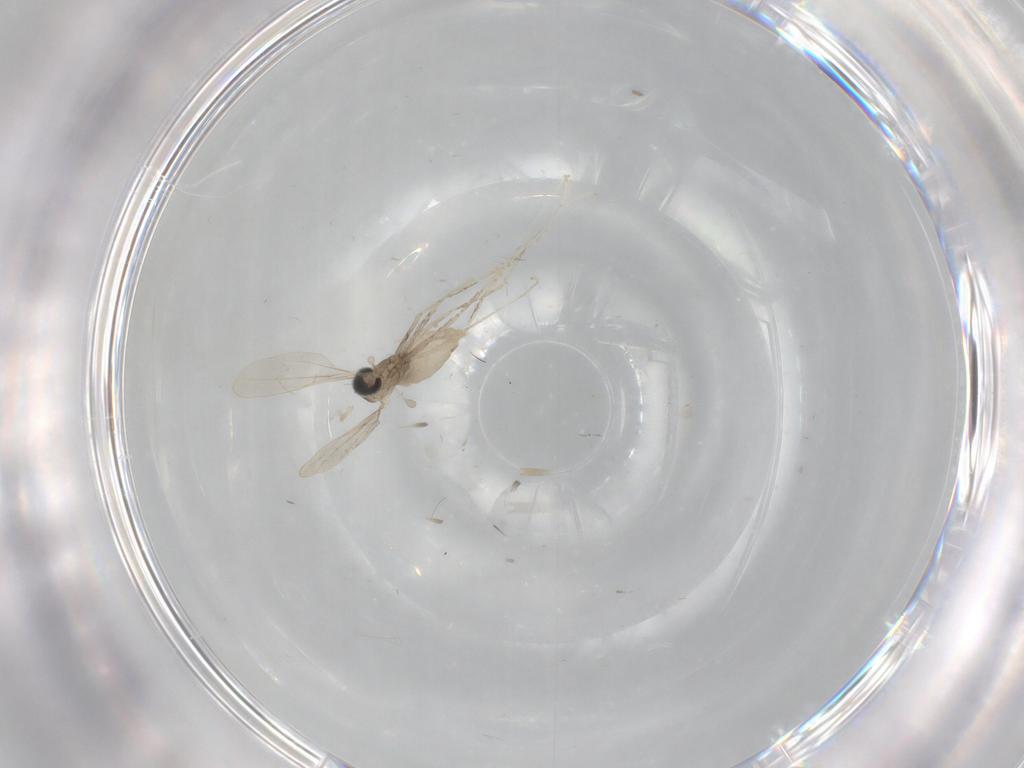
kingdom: Animalia
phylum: Arthropoda
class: Insecta
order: Diptera
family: Cecidomyiidae
